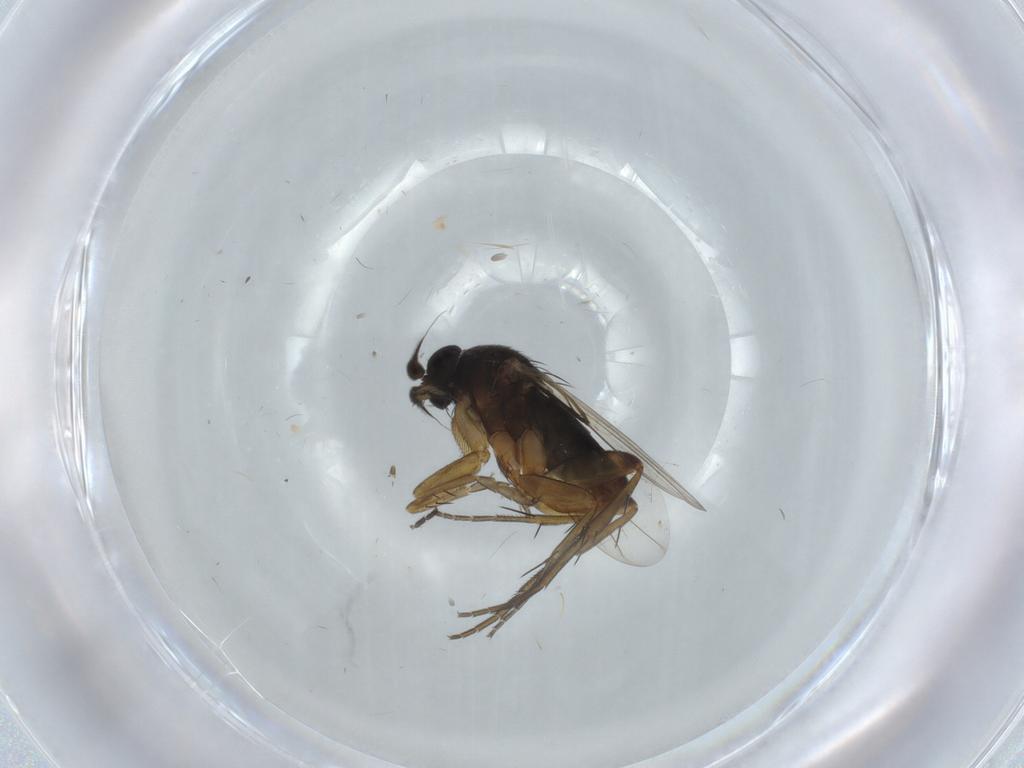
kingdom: Animalia
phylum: Arthropoda
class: Insecta
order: Diptera
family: Phoridae
